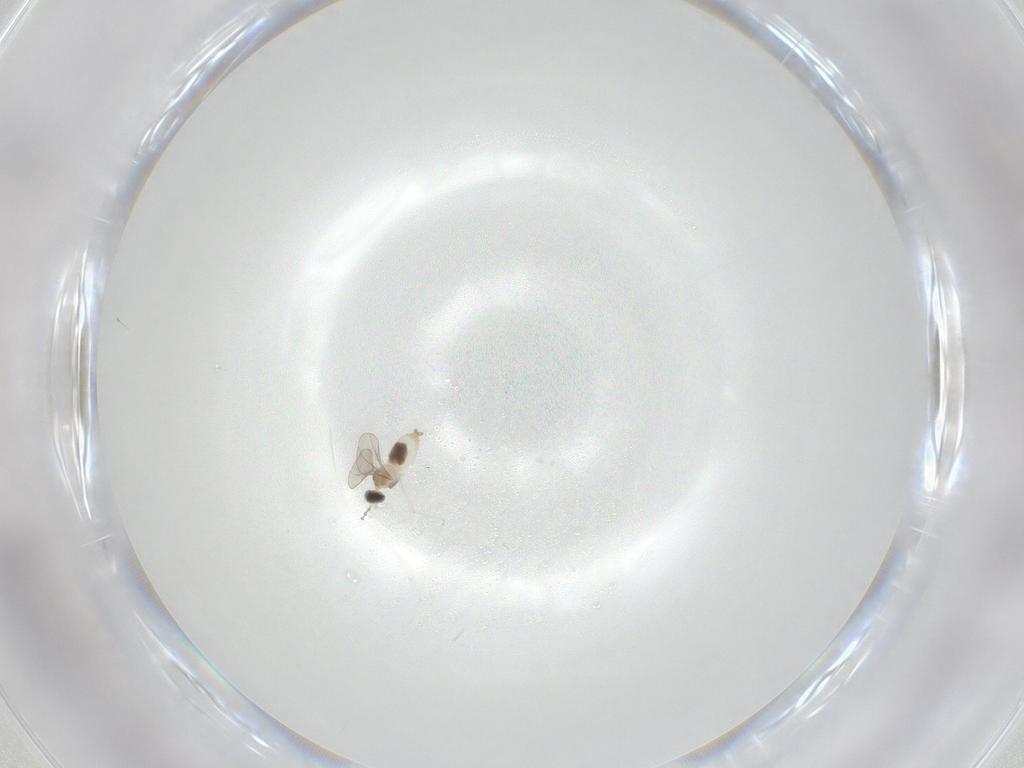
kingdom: Animalia
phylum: Arthropoda
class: Insecta
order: Diptera
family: Cecidomyiidae
